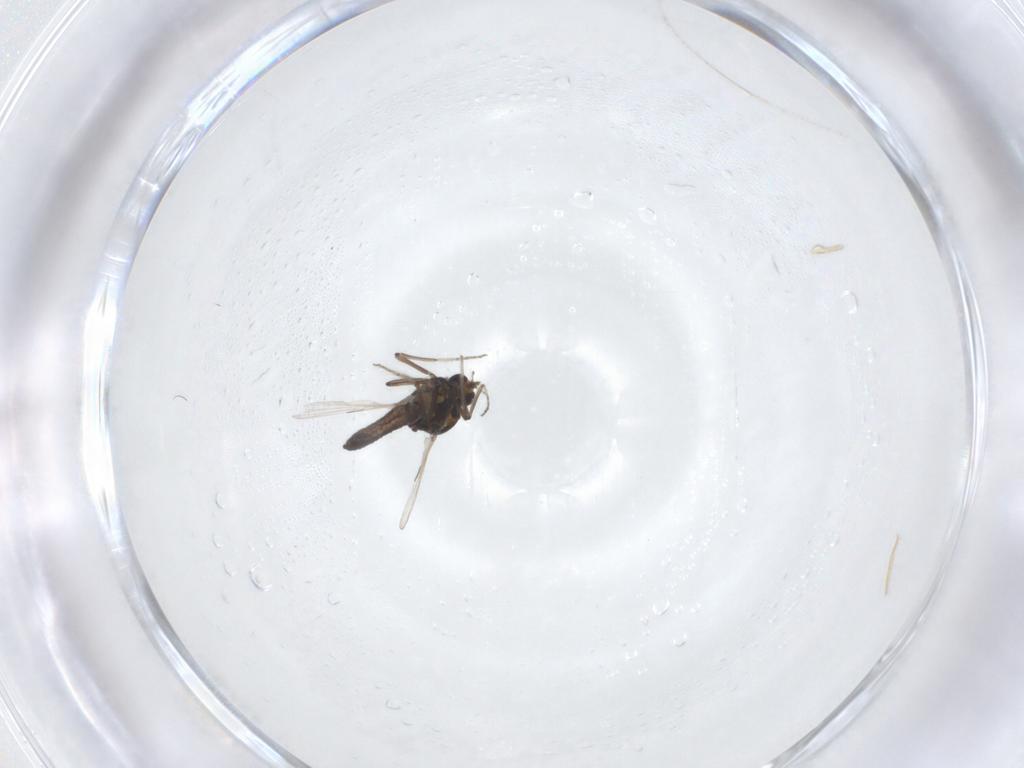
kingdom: Animalia
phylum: Arthropoda
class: Insecta
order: Diptera
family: Ceratopogonidae
